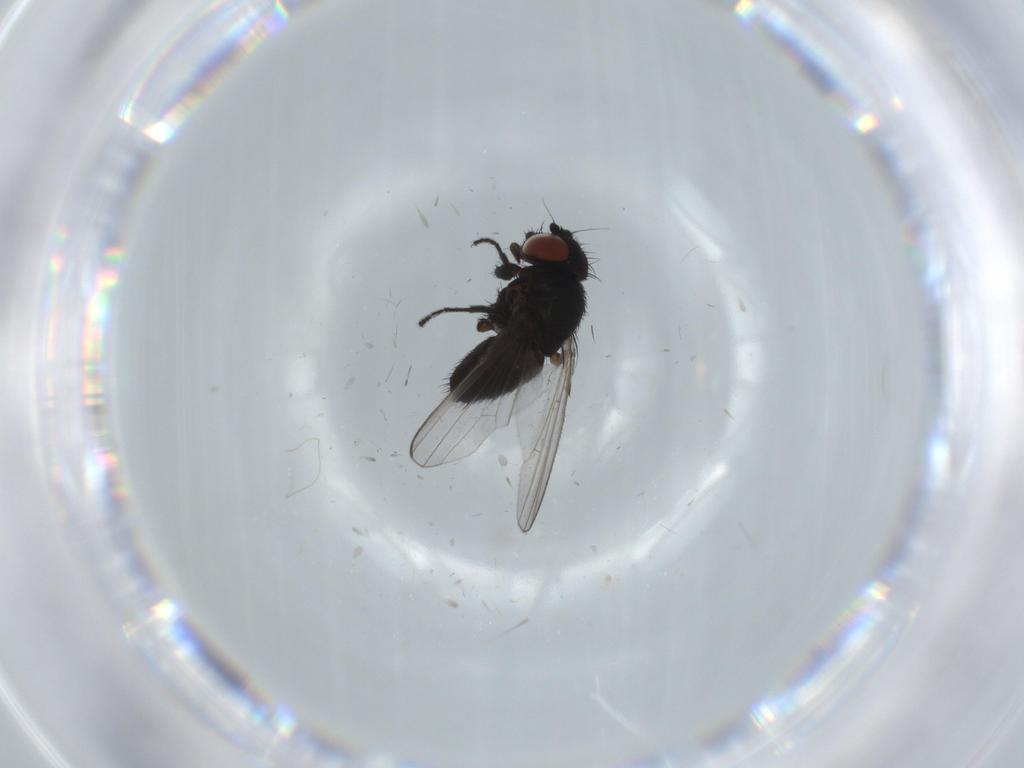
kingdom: Animalia
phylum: Arthropoda
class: Insecta
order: Diptera
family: Milichiidae
